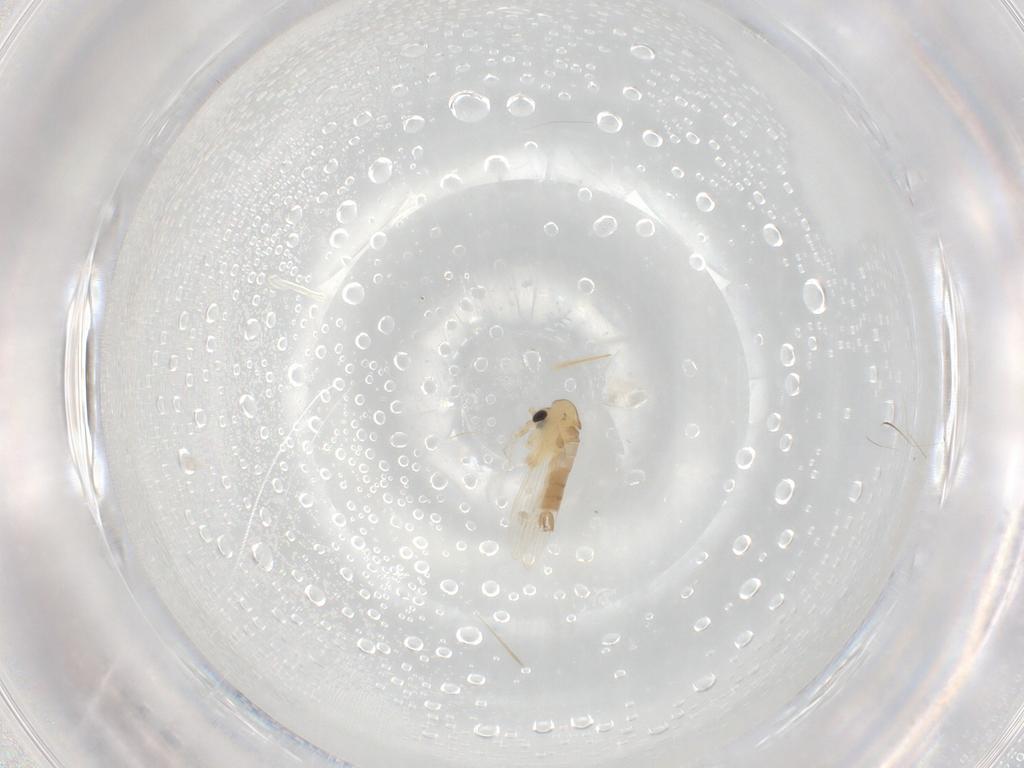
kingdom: Animalia
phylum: Arthropoda
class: Insecta
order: Diptera
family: Psychodidae
